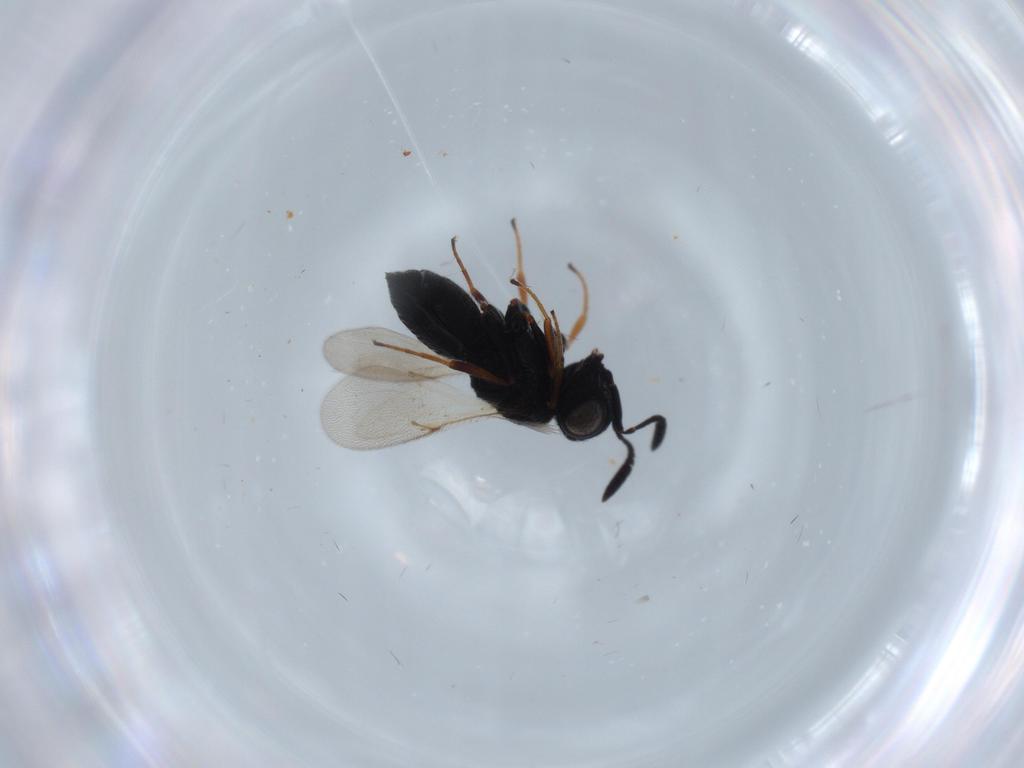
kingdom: Animalia
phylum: Arthropoda
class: Insecta
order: Hymenoptera
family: Scelionidae
